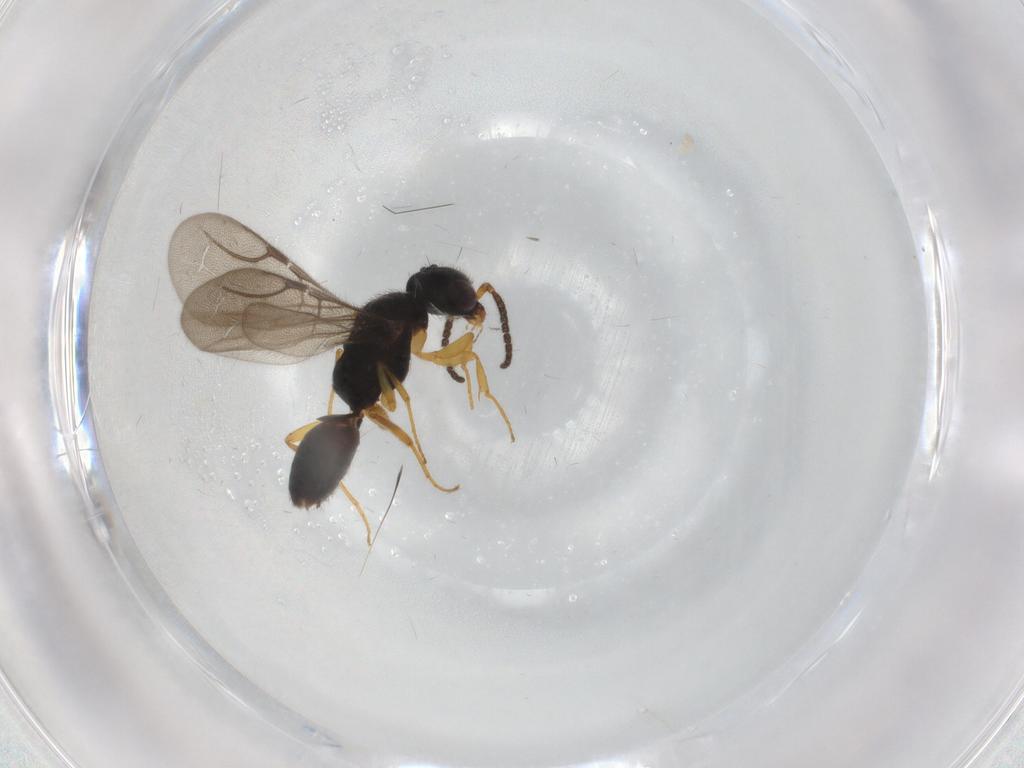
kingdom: Animalia
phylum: Arthropoda
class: Insecta
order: Hymenoptera
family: Bethylidae
